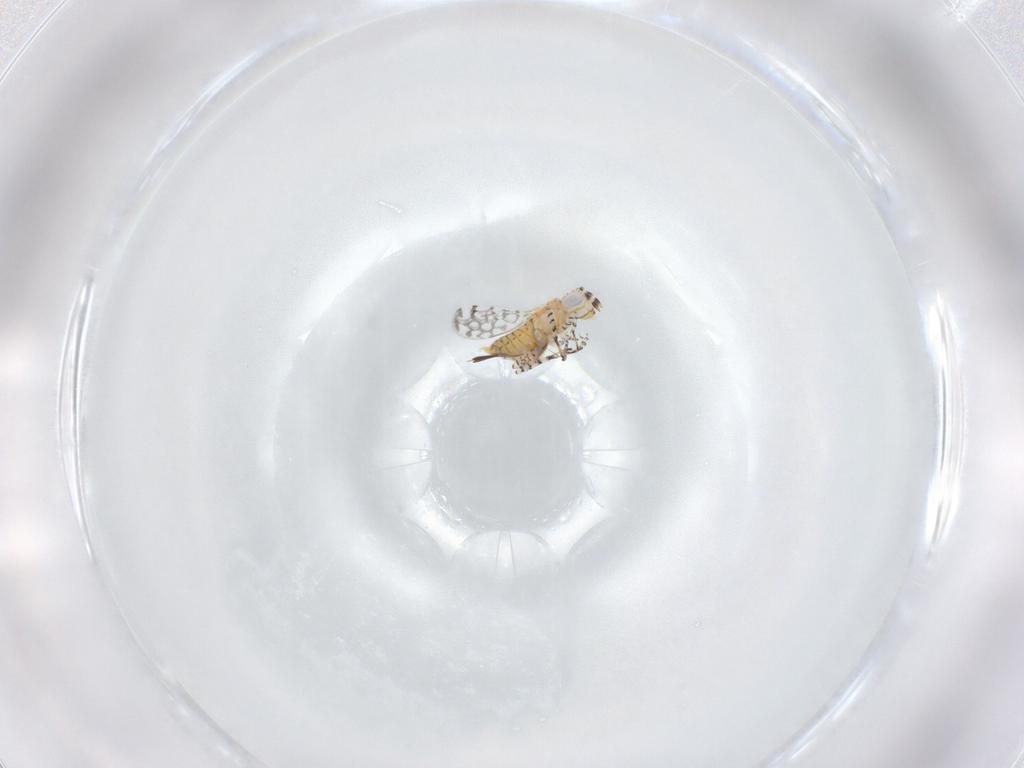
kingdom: Animalia
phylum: Arthropoda
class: Insecta
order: Hymenoptera
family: Aphelinidae
